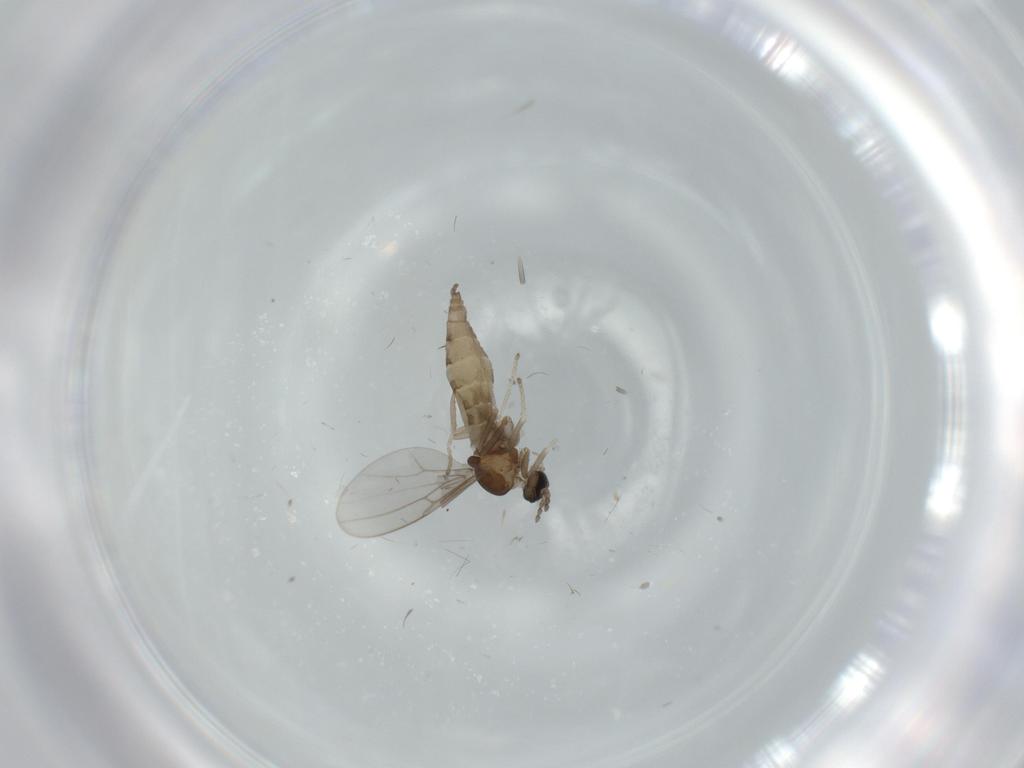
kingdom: Animalia
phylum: Arthropoda
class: Insecta
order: Diptera
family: Cecidomyiidae
